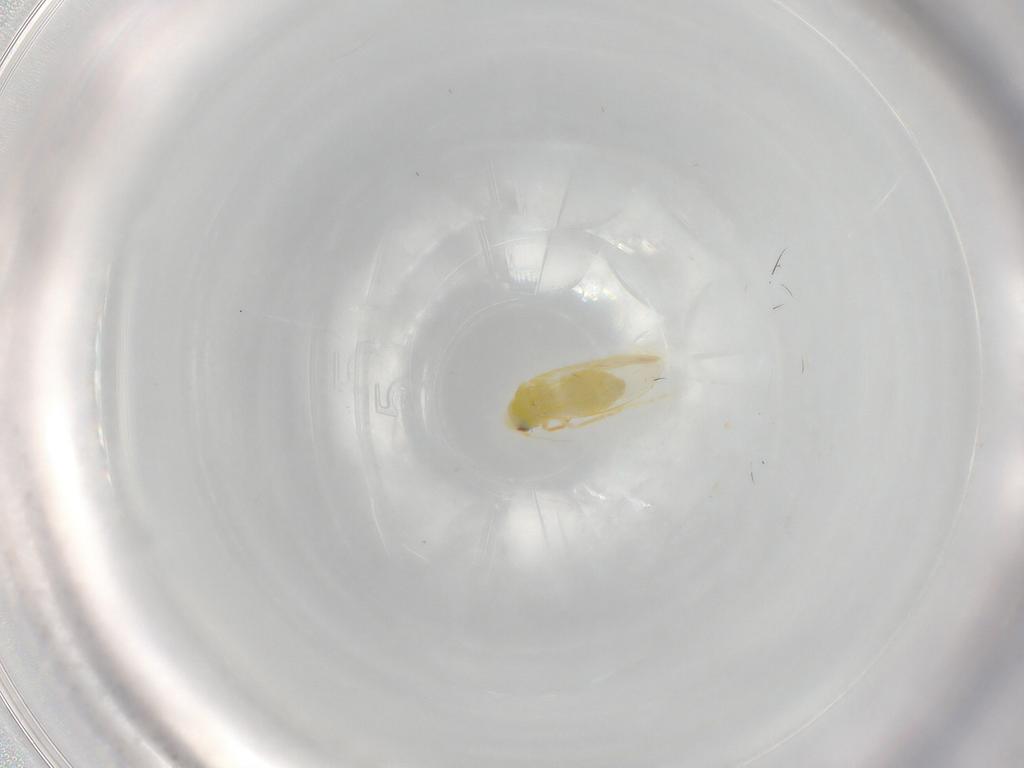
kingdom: Animalia
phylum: Arthropoda
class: Insecta
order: Hemiptera
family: Aleyrodidae
